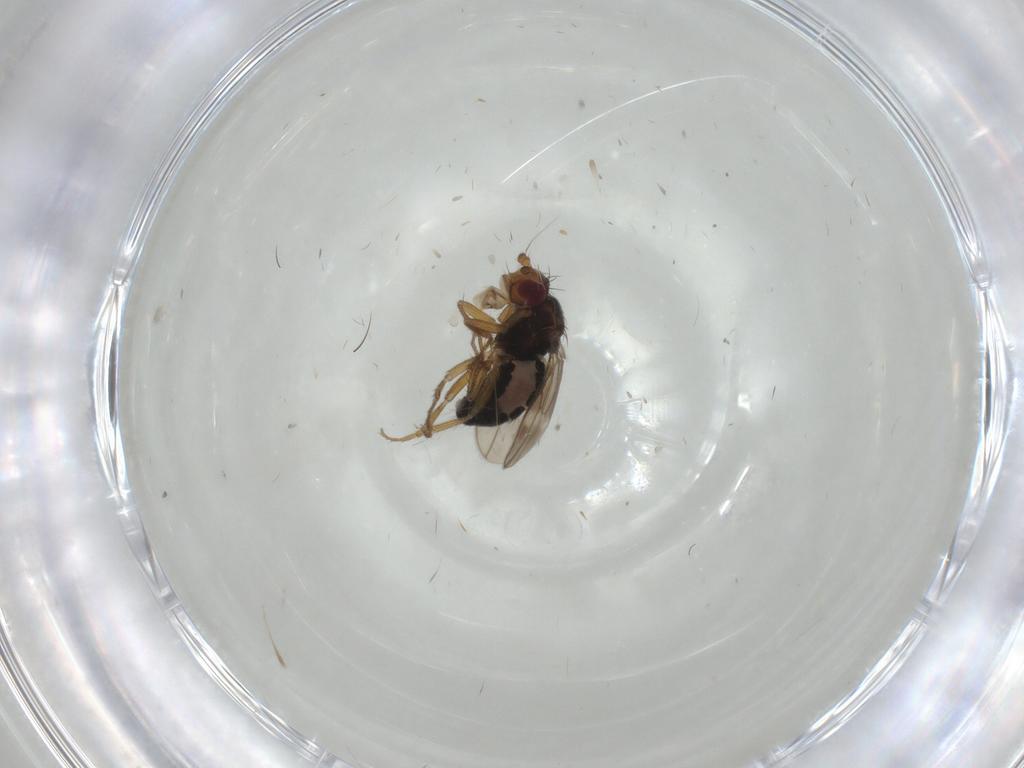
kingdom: Animalia
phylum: Arthropoda
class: Insecta
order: Diptera
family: Sphaeroceridae
